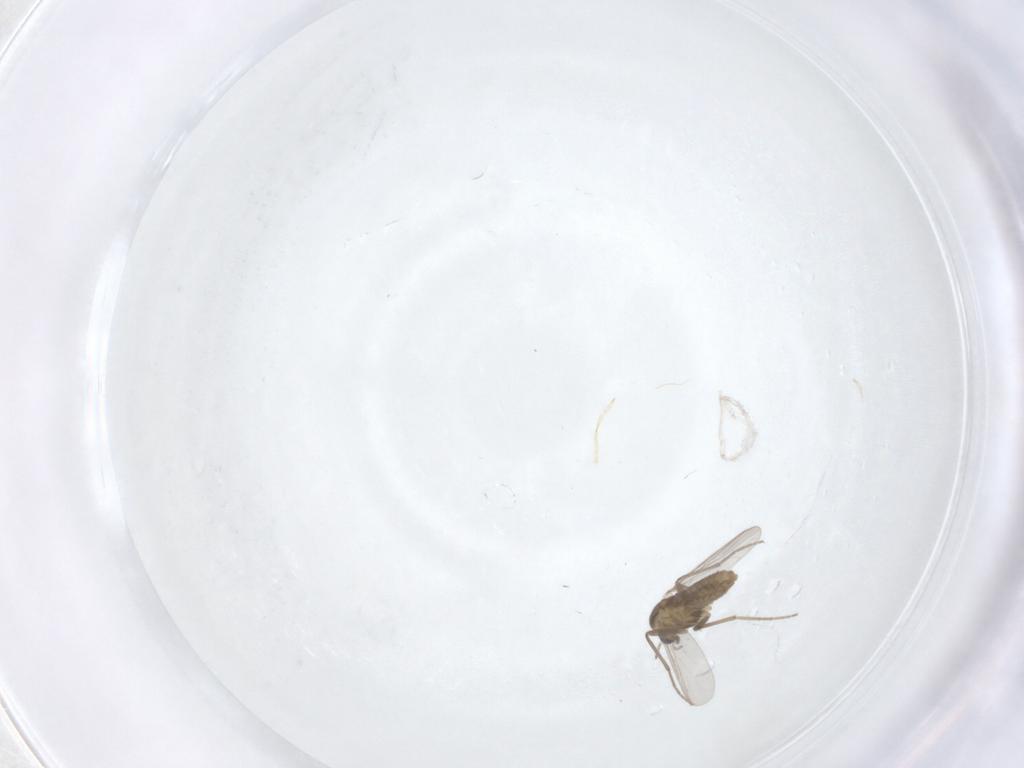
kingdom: Animalia
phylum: Arthropoda
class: Insecta
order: Diptera
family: Chironomidae
